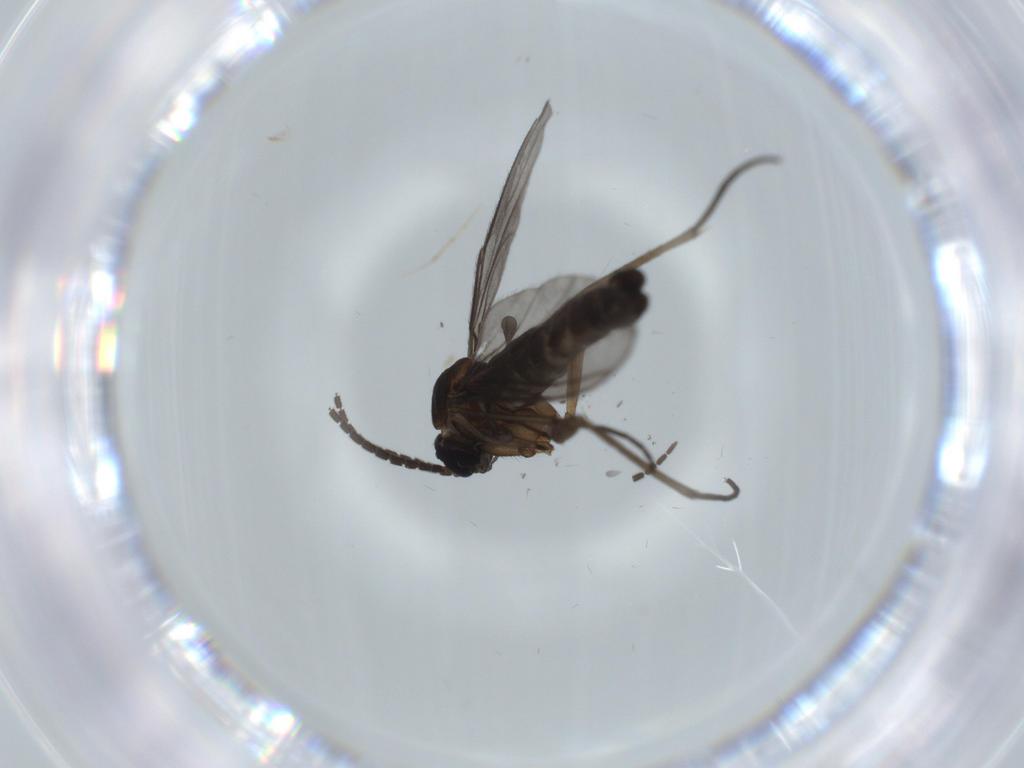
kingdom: Animalia
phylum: Arthropoda
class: Insecta
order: Diptera
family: Sciaridae
